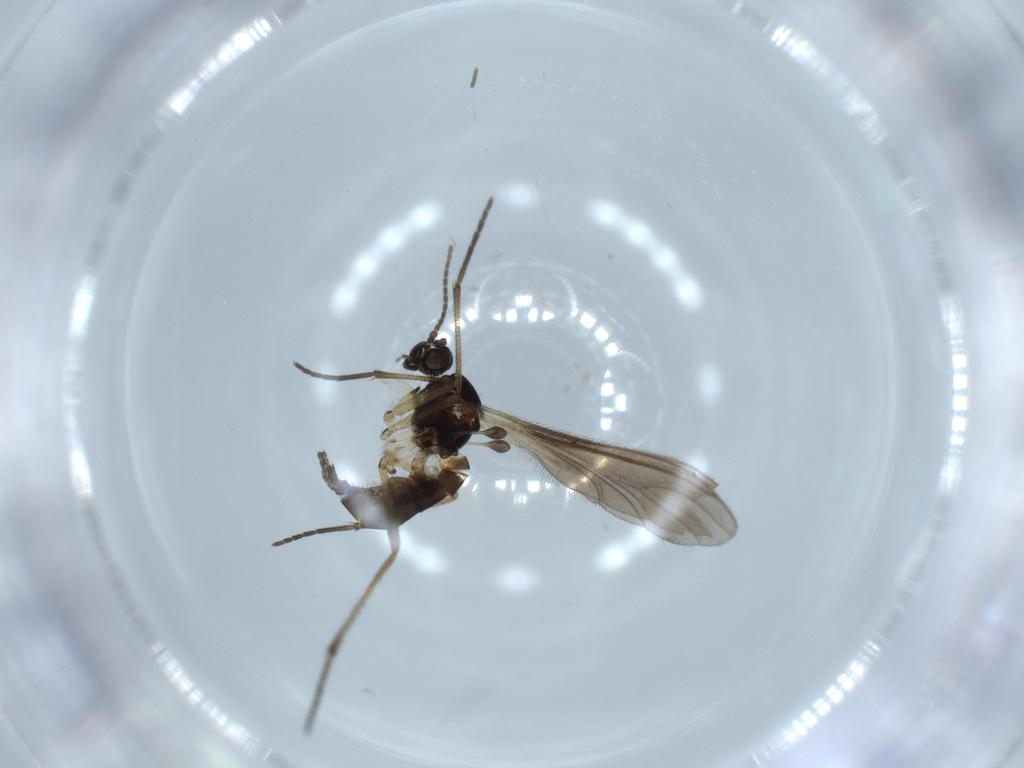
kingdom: Animalia
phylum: Arthropoda
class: Insecta
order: Diptera
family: Sciaridae
